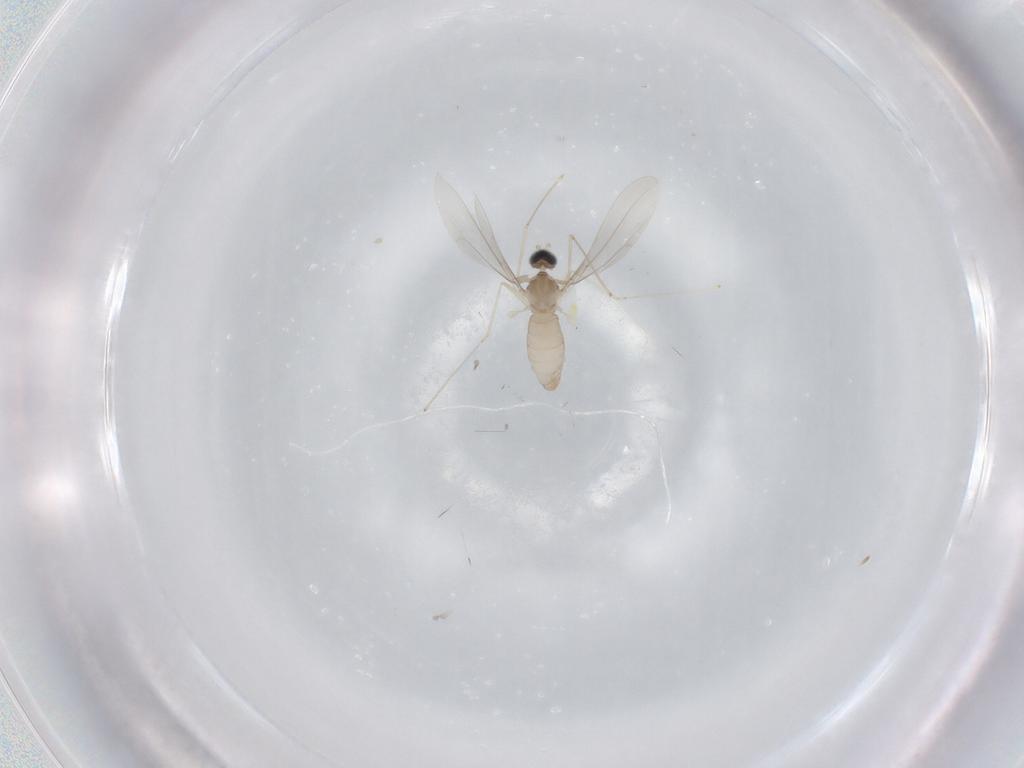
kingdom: Animalia
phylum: Arthropoda
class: Insecta
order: Diptera
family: Cecidomyiidae
